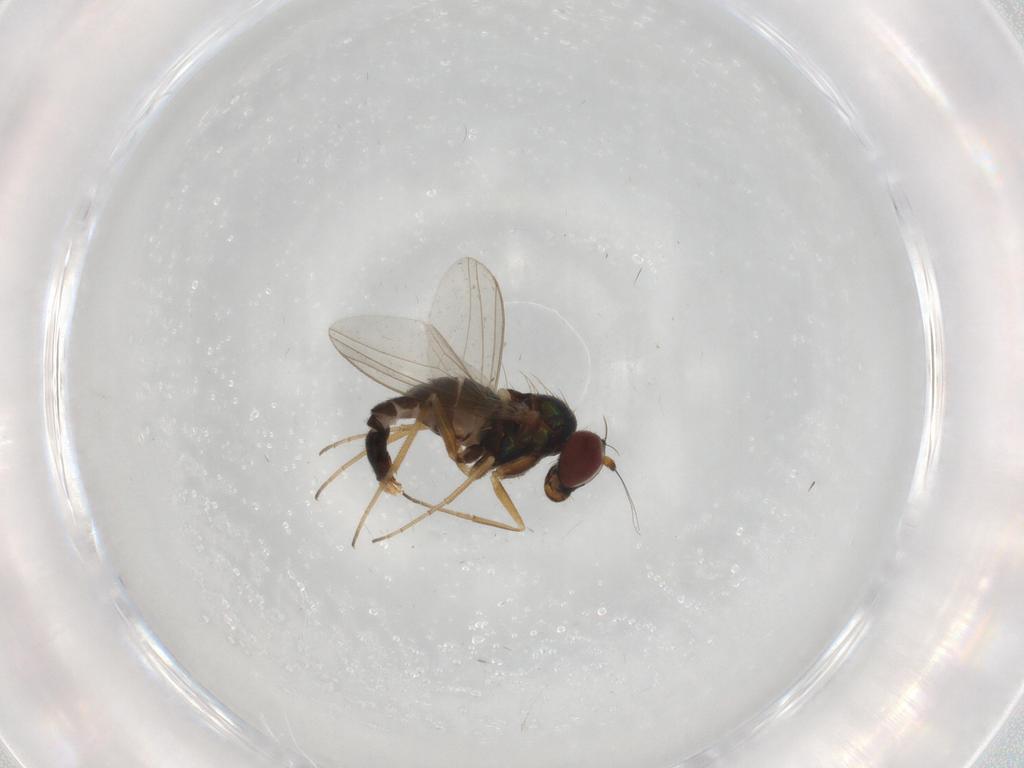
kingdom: Animalia
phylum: Arthropoda
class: Insecta
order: Diptera
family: Dolichopodidae
